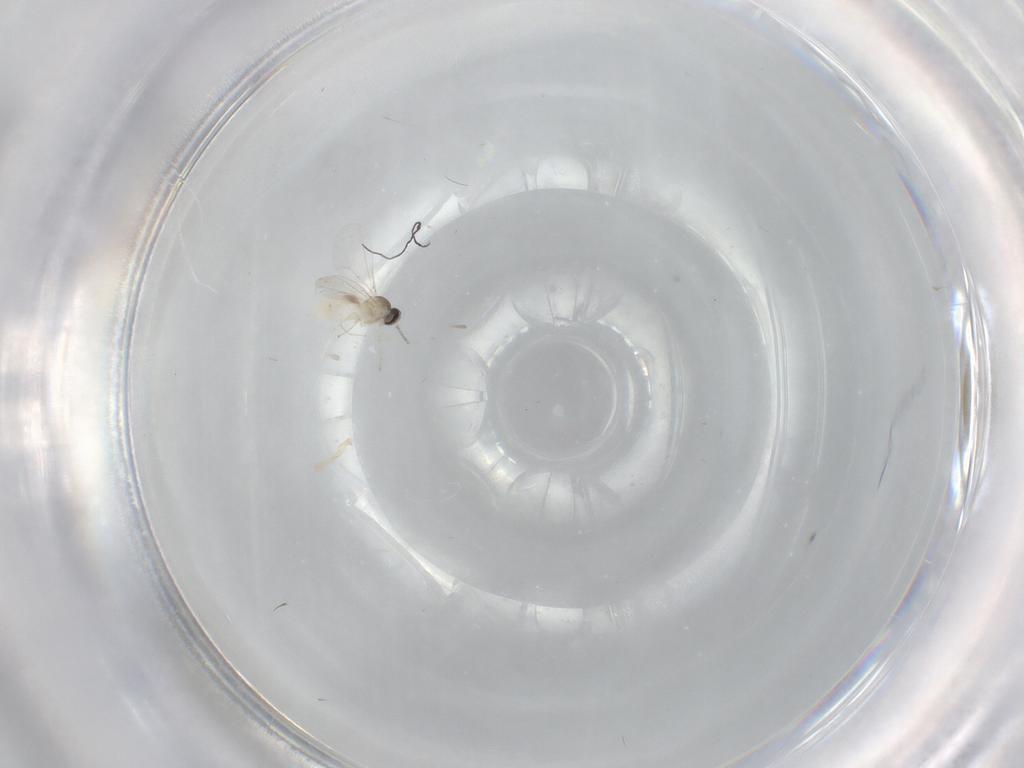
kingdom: Animalia
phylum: Arthropoda
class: Insecta
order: Diptera
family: Cecidomyiidae
